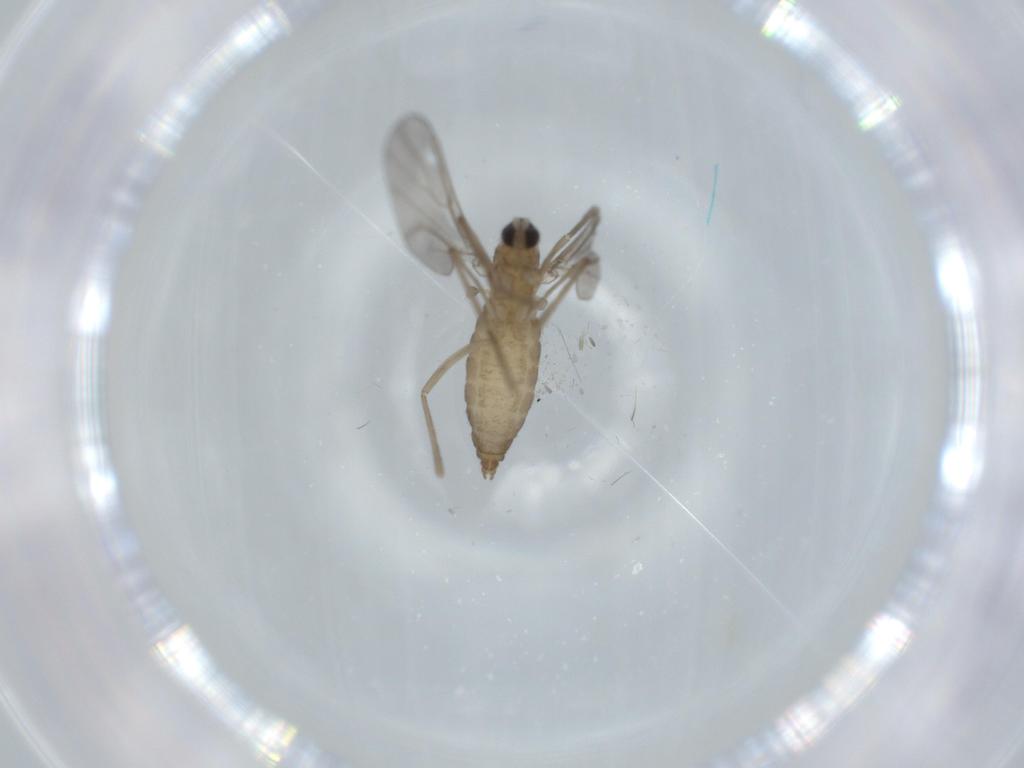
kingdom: Animalia
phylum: Arthropoda
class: Insecta
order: Diptera
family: Cecidomyiidae
